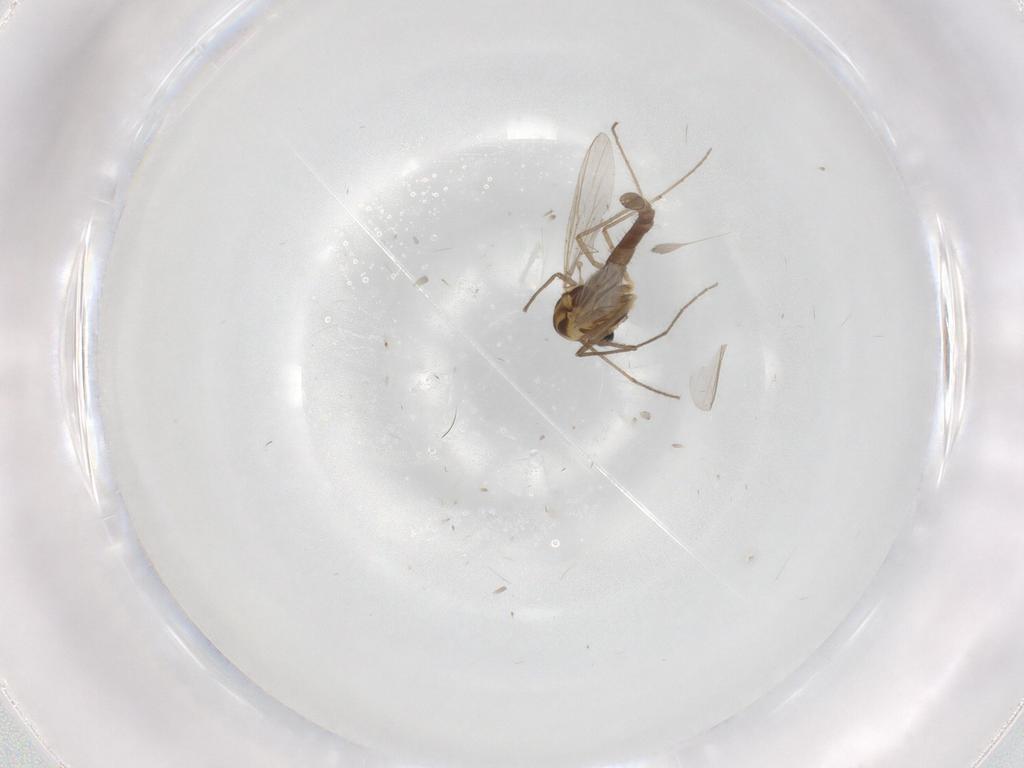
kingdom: Animalia
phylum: Arthropoda
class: Insecta
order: Diptera
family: Chironomidae
